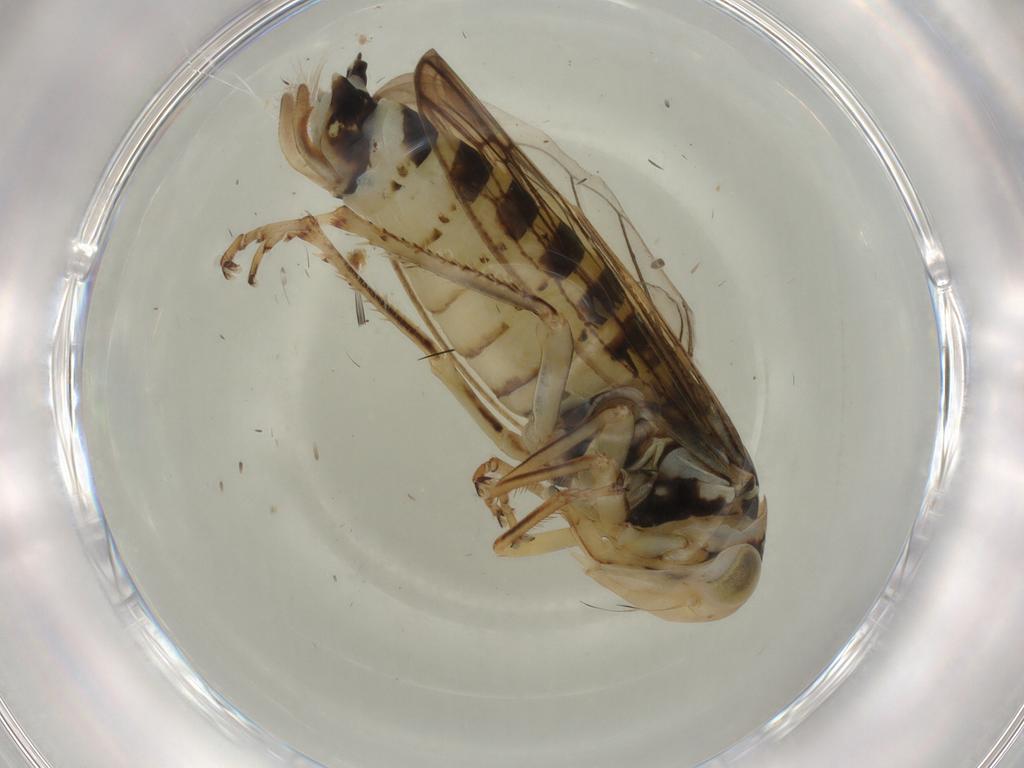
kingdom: Animalia
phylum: Arthropoda
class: Insecta
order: Hemiptera
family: Cicadellidae
